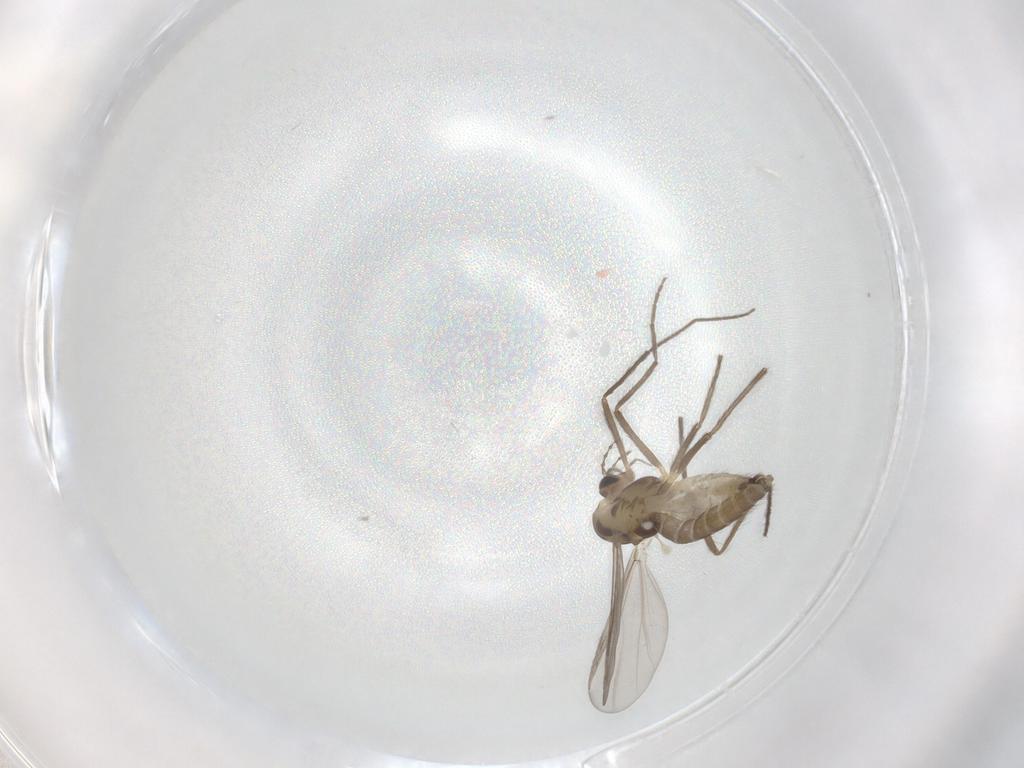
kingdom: Animalia
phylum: Arthropoda
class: Insecta
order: Diptera
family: Chironomidae
